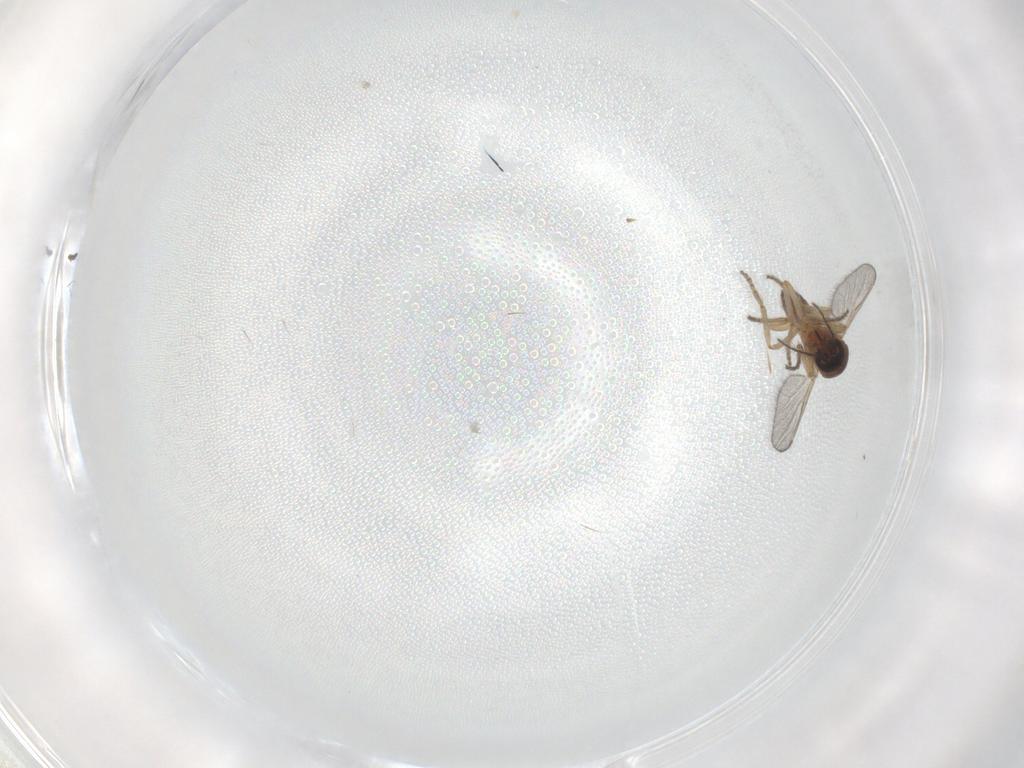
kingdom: Animalia
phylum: Arthropoda
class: Insecta
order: Diptera
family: Ceratopogonidae
